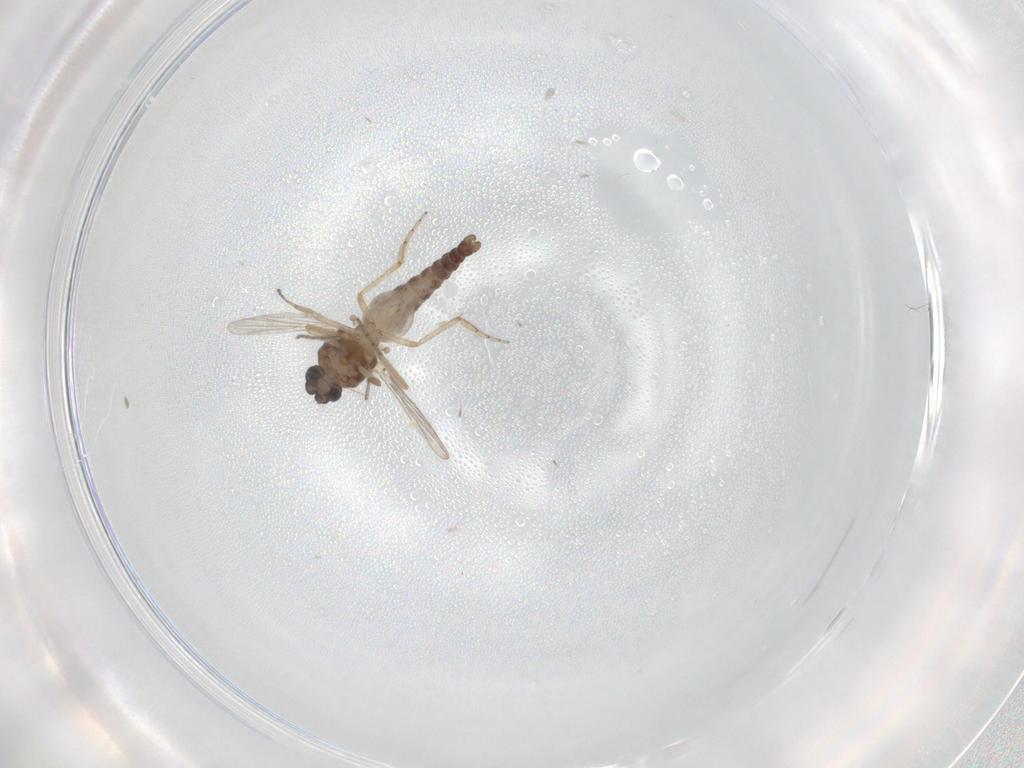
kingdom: Animalia
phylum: Arthropoda
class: Insecta
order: Diptera
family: Ceratopogonidae
